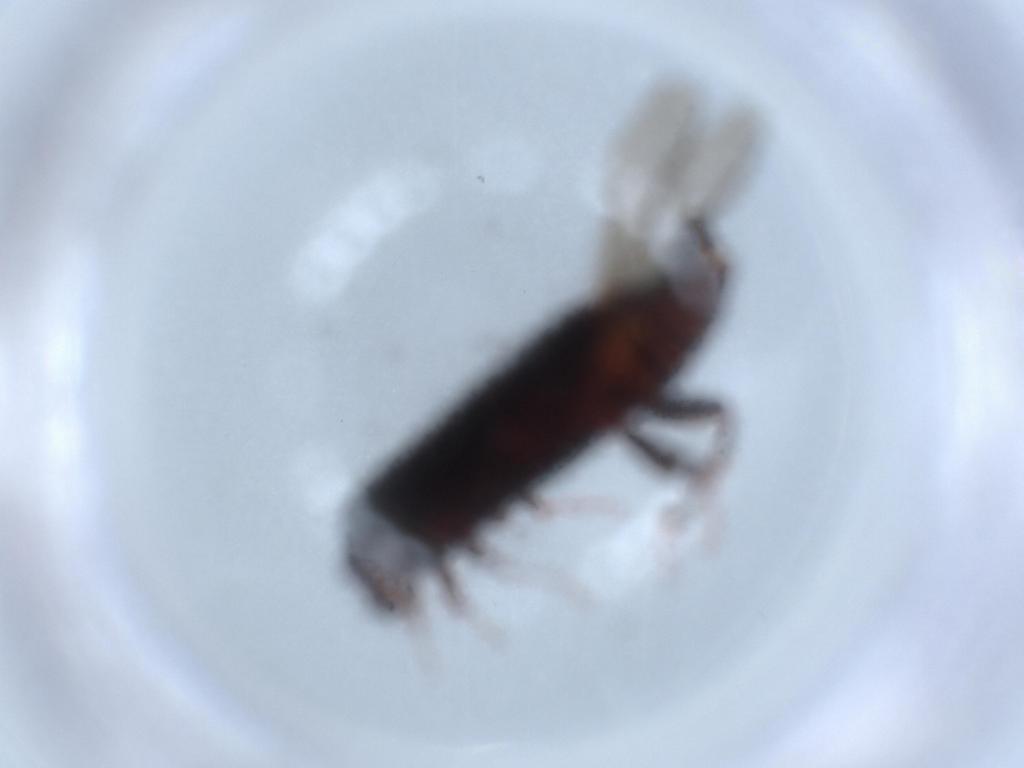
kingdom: Animalia
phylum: Arthropoda
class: Insecta
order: Coleoptera
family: Histeridae
